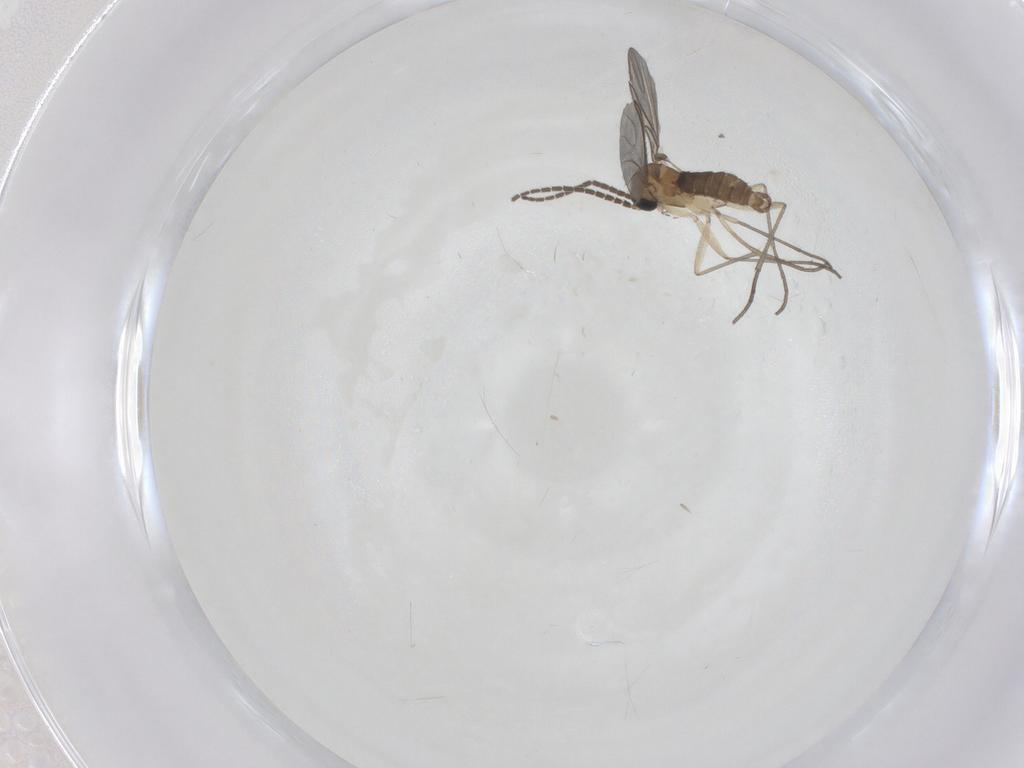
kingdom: Animalia
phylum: Arthropoda
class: Insecta
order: Diptera
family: Sciaridae
